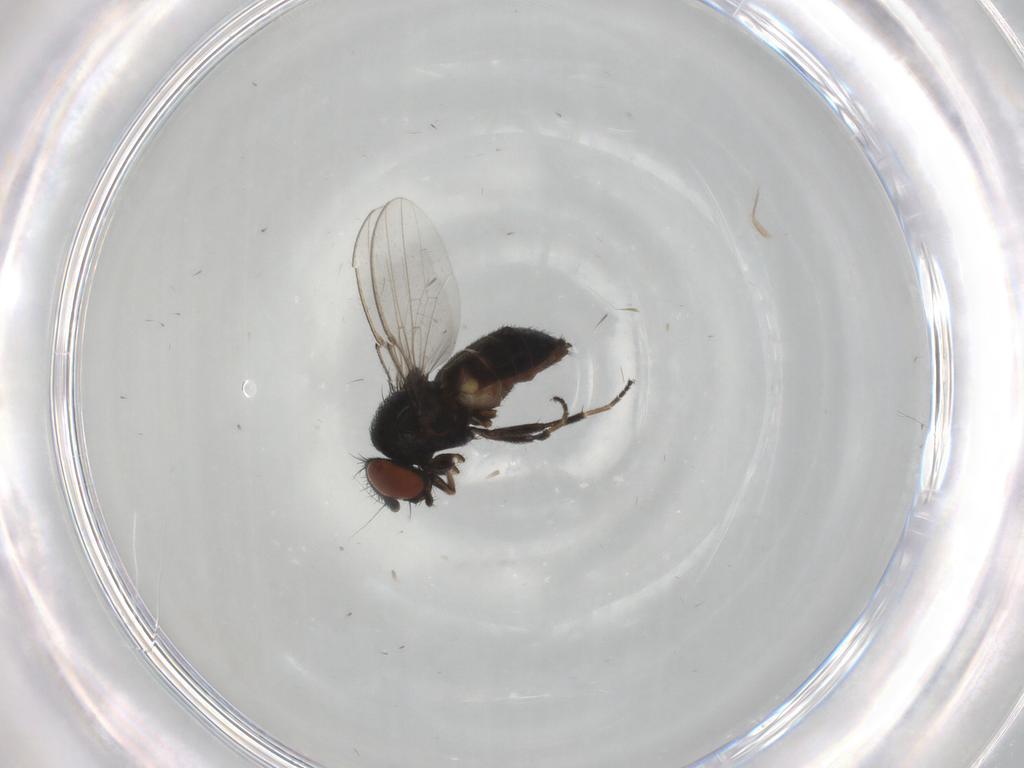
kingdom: Animalia
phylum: Arthropoda
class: Insecta
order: Diptera
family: Milichiidae
